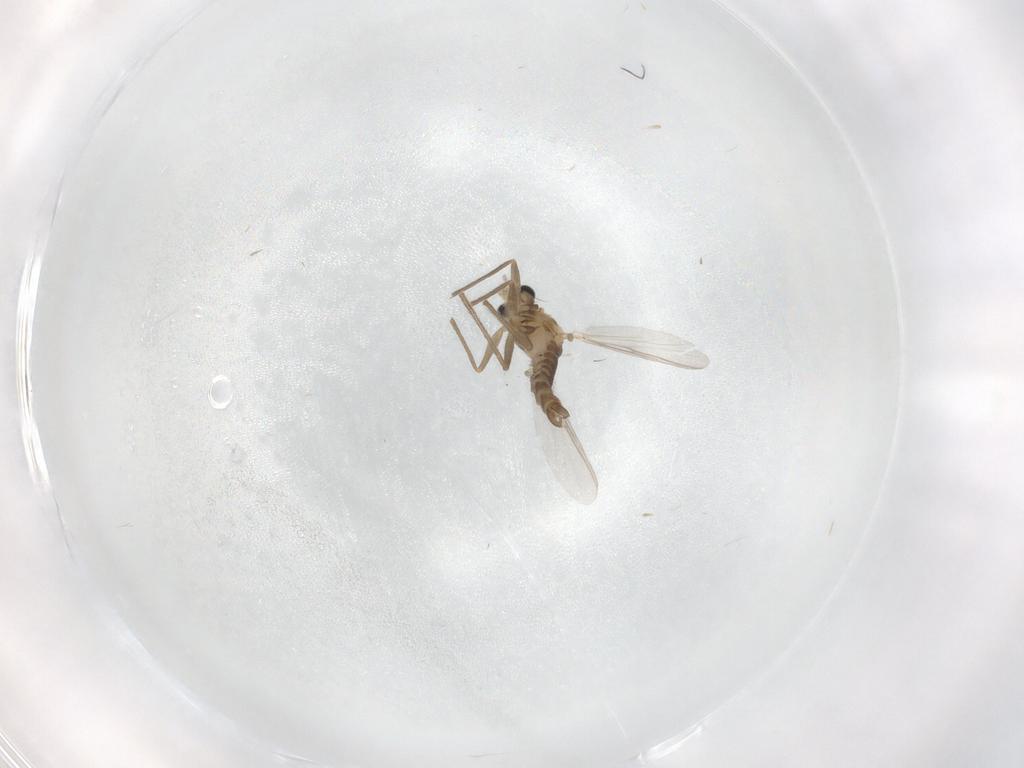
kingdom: Animalia
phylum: Arthropoda
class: Insecta
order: Diptera
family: Chironomidae
